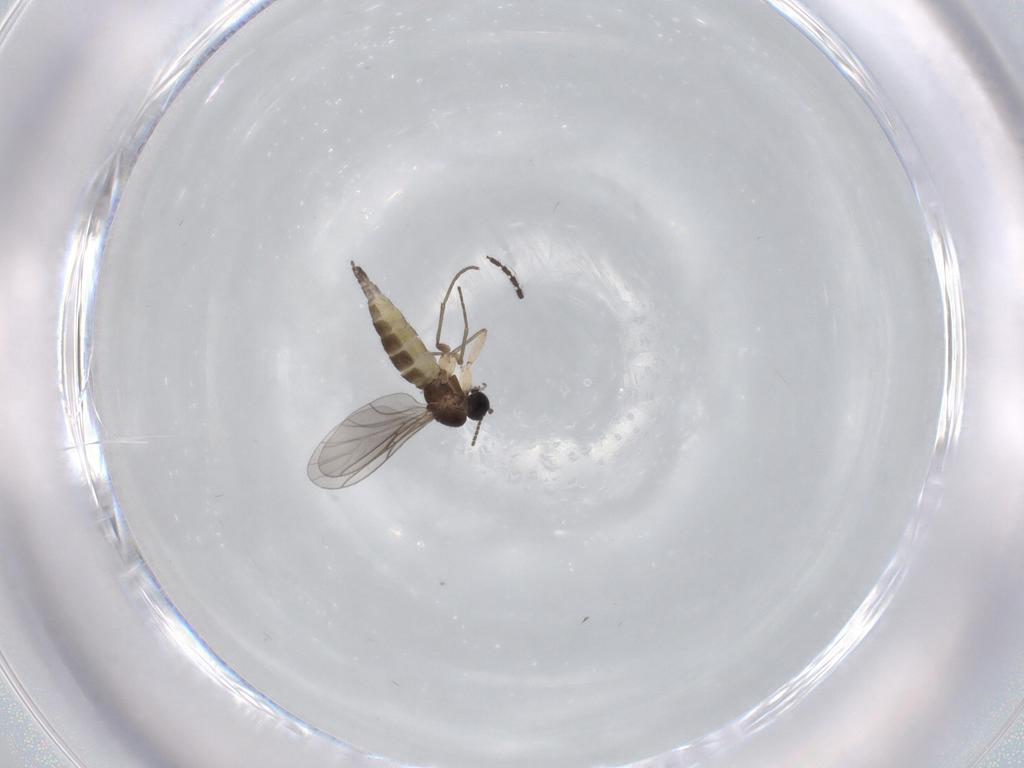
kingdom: Animalia
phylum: Arthropoda
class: Insecta
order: Diptera
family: Sciaridae
